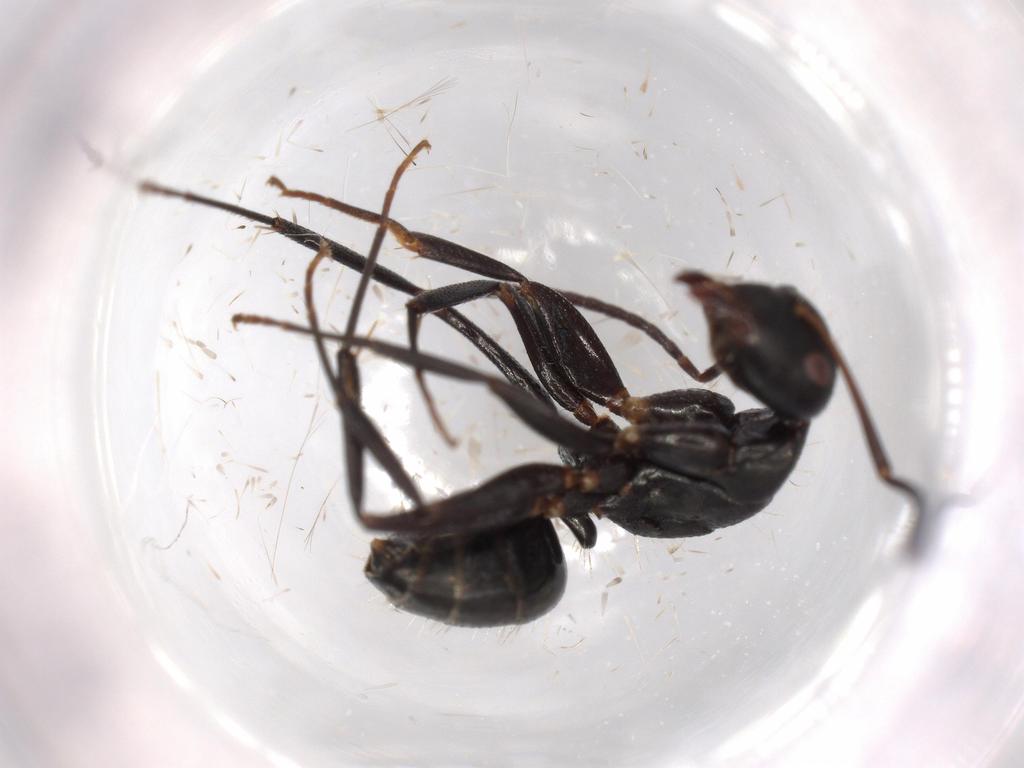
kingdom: Animalia
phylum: Arthropoda
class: Insecta
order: Hymenoptera
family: Formicidae
